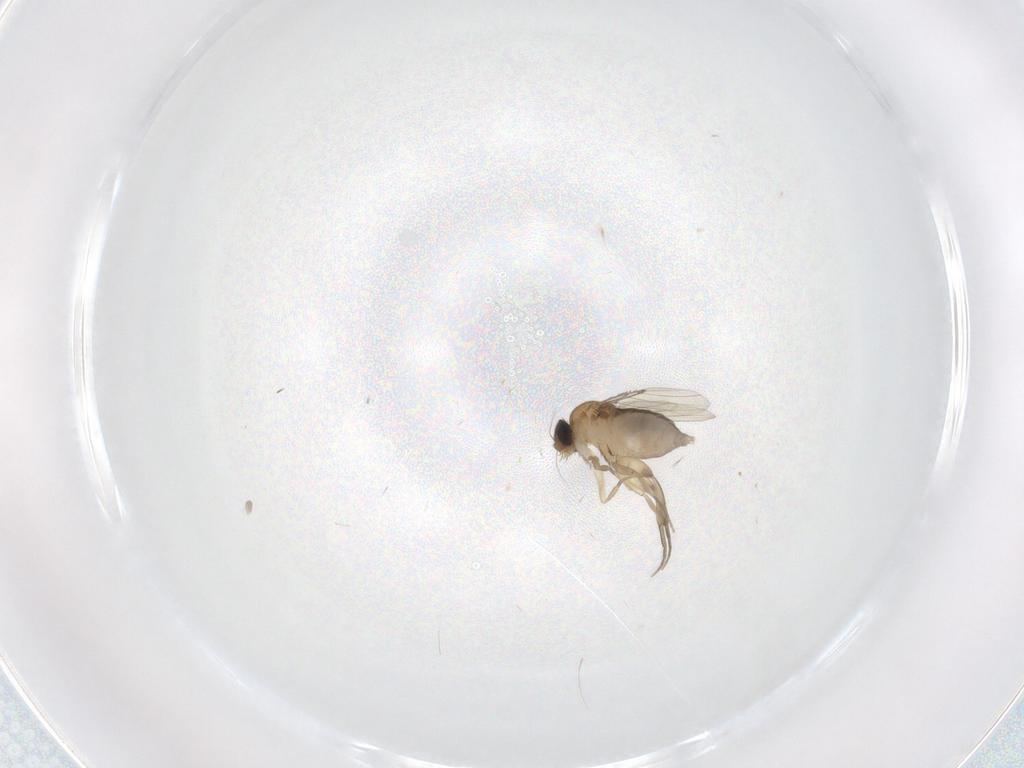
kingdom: Animalia
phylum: Arthropoda
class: Insecta
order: Diptera
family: Phoridae
